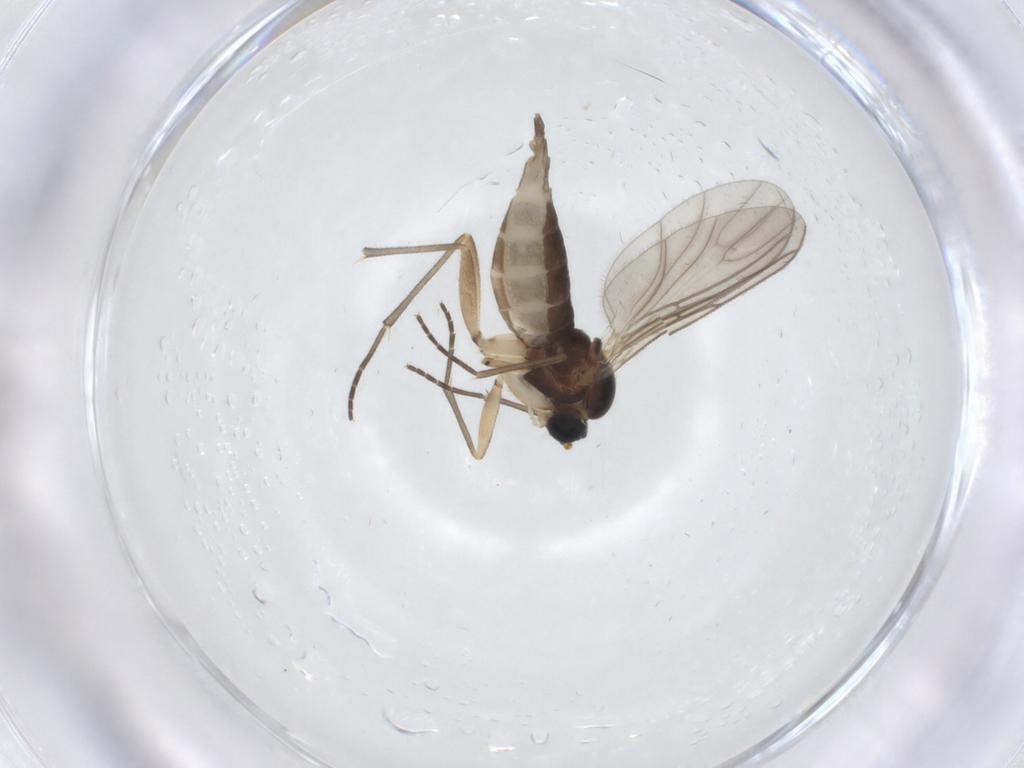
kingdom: Animalia
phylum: Arthropoda
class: Insecta
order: Diptera
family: Sciaridae
